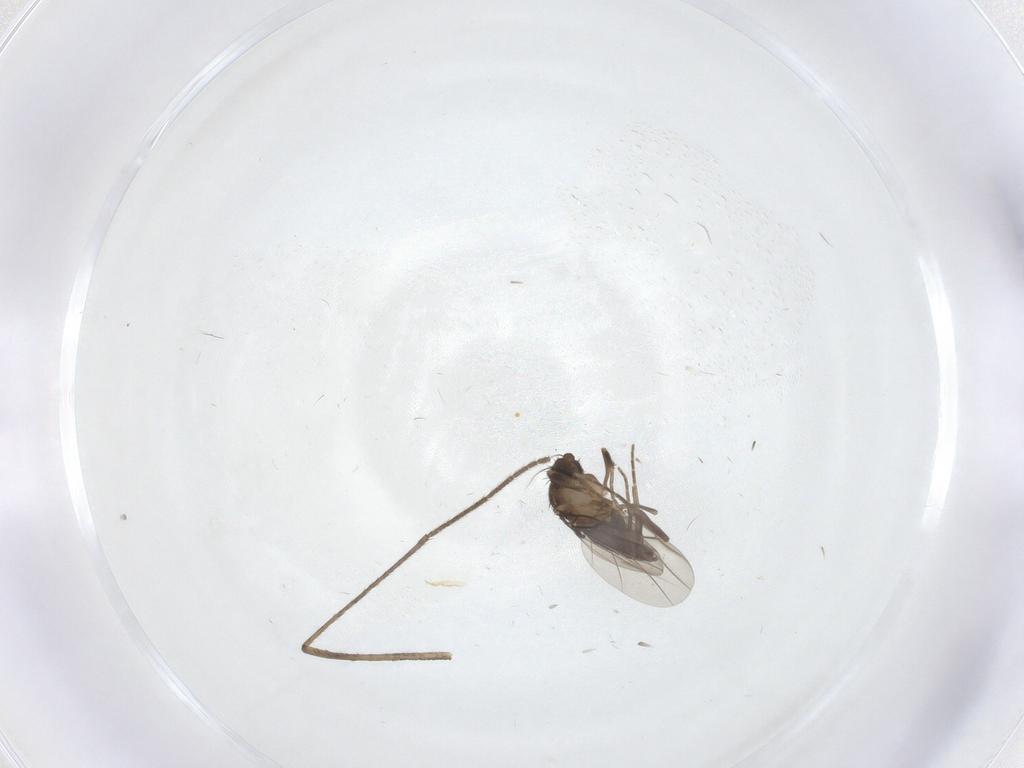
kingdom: Animalia
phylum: Arthropoda
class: Insecta
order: Diptera
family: Limoniidae
